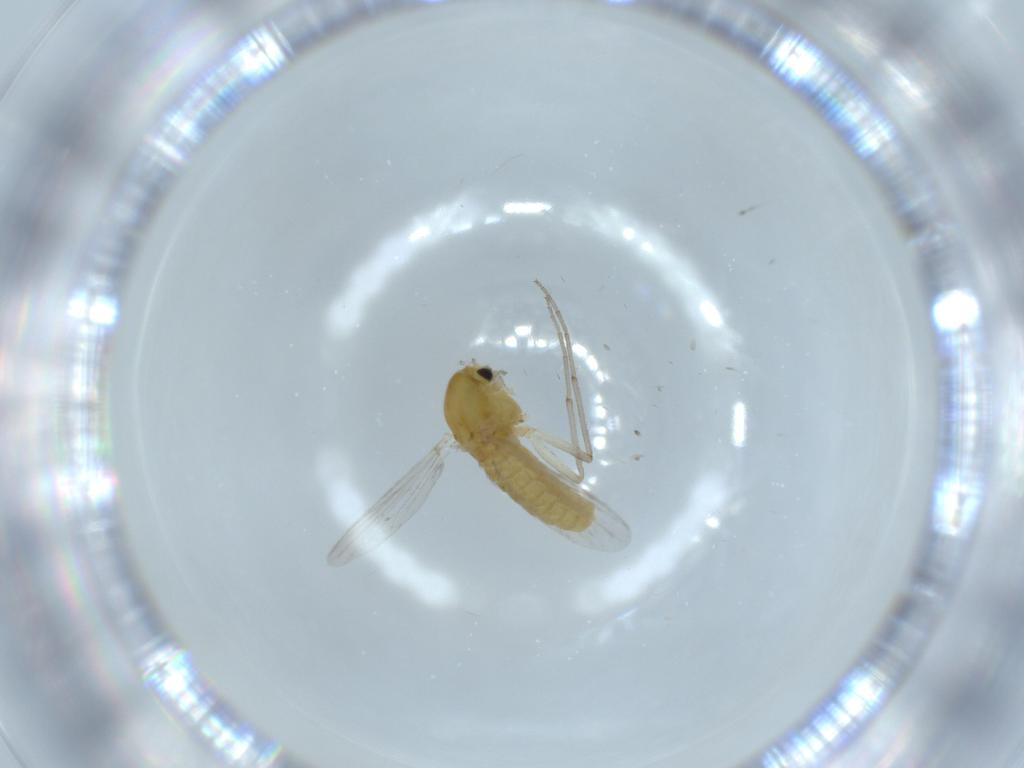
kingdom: Animalia
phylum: Arthropoda
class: Insecta
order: Diptera
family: Chironomidae
